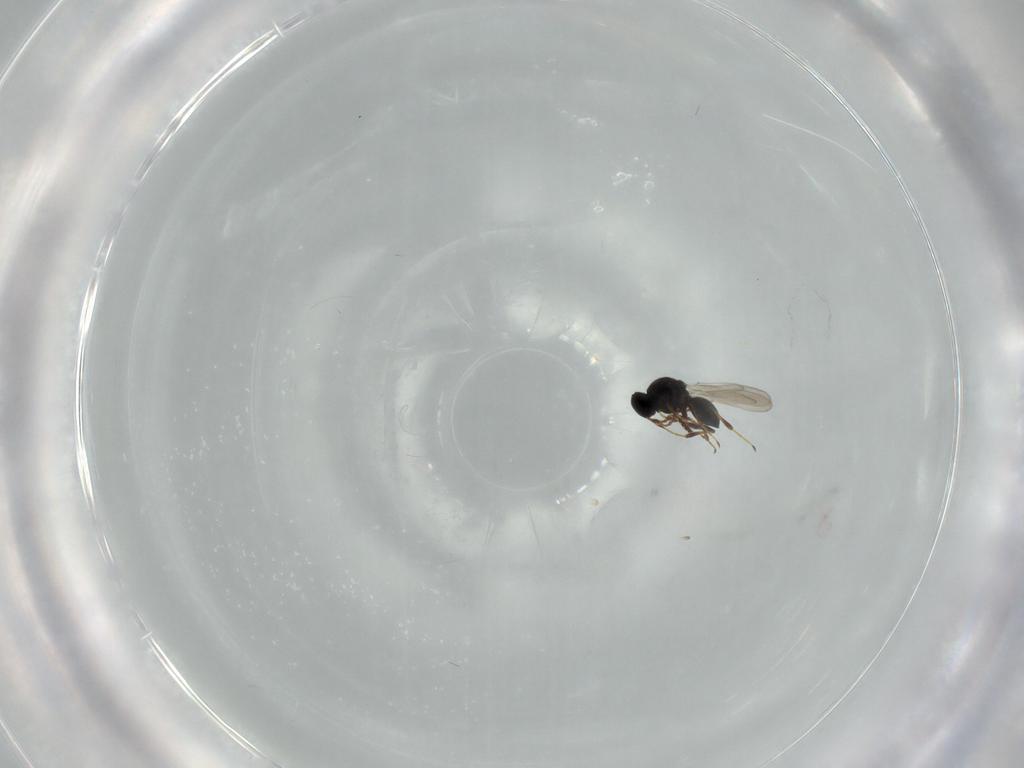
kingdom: Animalia
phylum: Arthropoda
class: Insecta
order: Hymenoptera
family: Platygastridae
